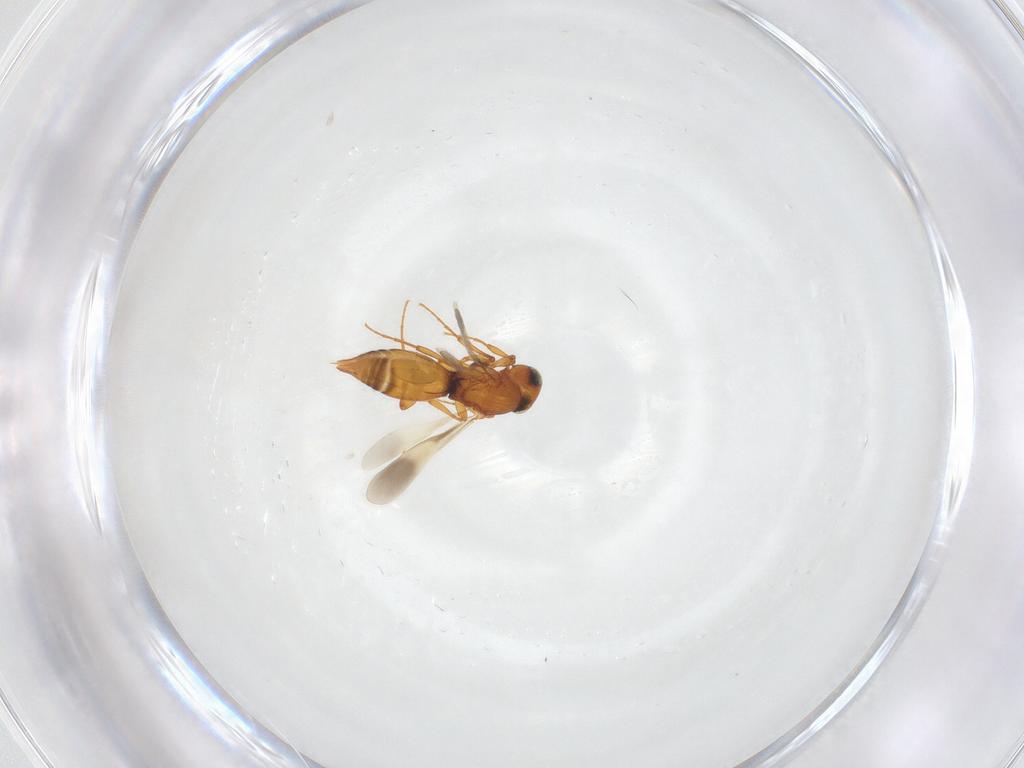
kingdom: Animalia
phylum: Arthropoda
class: Insecta
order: Hymenoptera
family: Platygastridae
